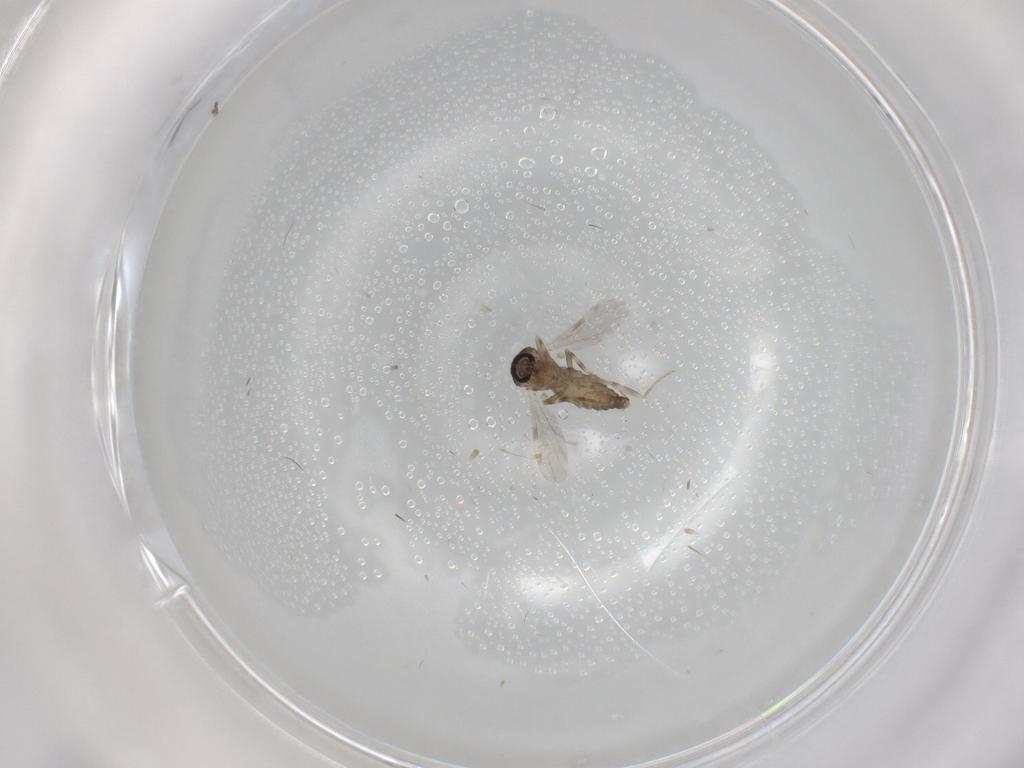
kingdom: Animalia
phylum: Arthropoda
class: Insecta
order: Diptera
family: Ceratopogonidae
